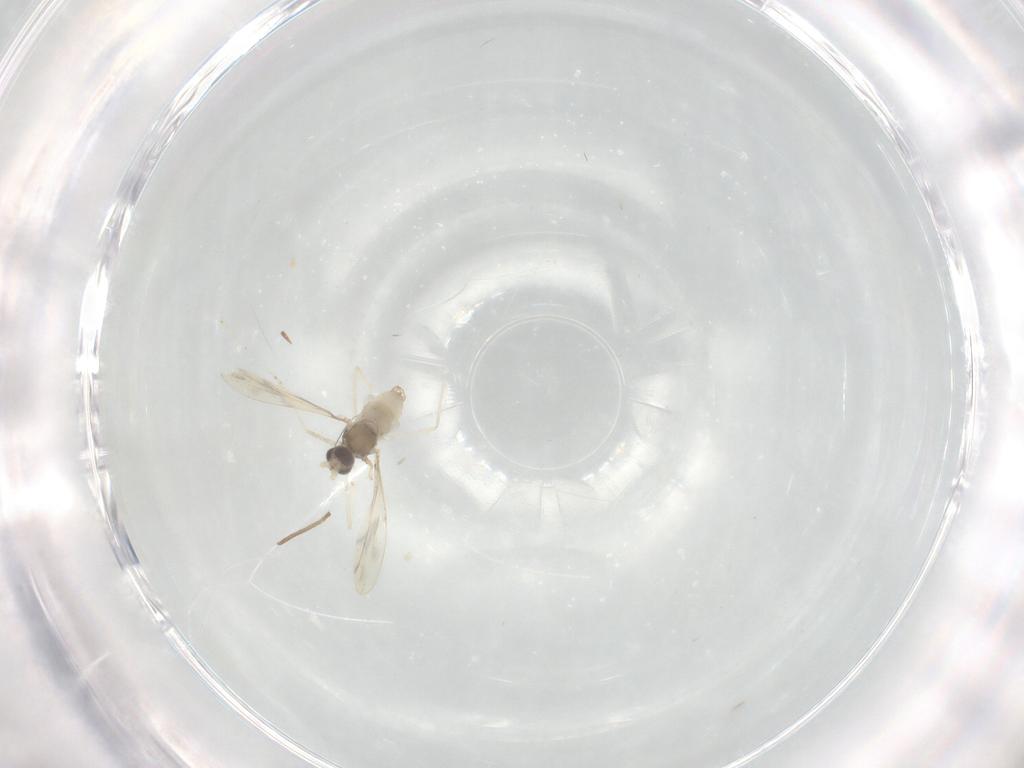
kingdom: Animalia
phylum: Arthropoda
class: Insecta
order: Diptera
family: Cecidomyiidae
